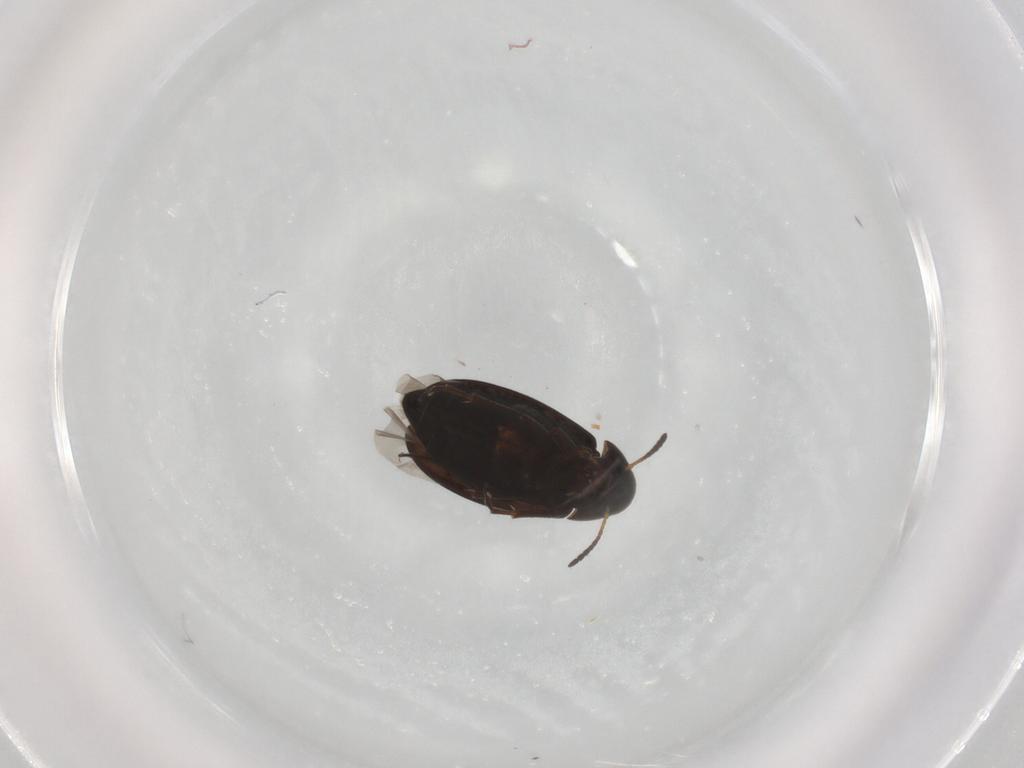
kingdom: Animalia
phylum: Arthropoda
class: Insecta
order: Coleoptera
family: Scraptiidae
